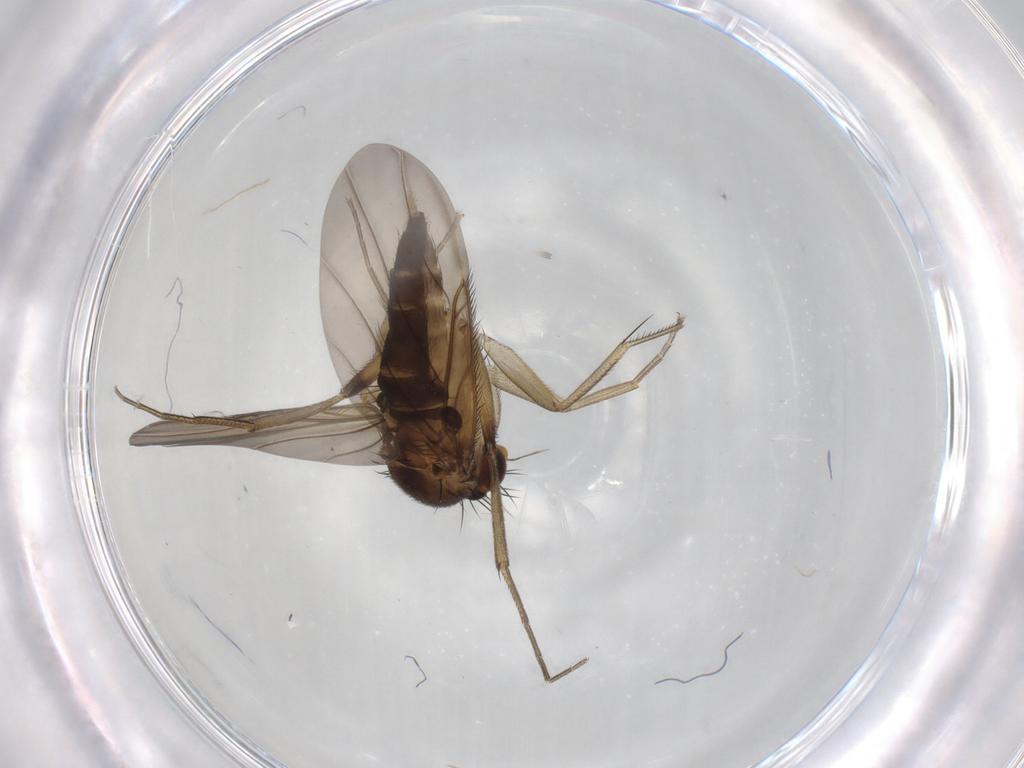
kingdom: Animalia
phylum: Arthropoda
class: Insecta
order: Diptera
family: Phoridae
